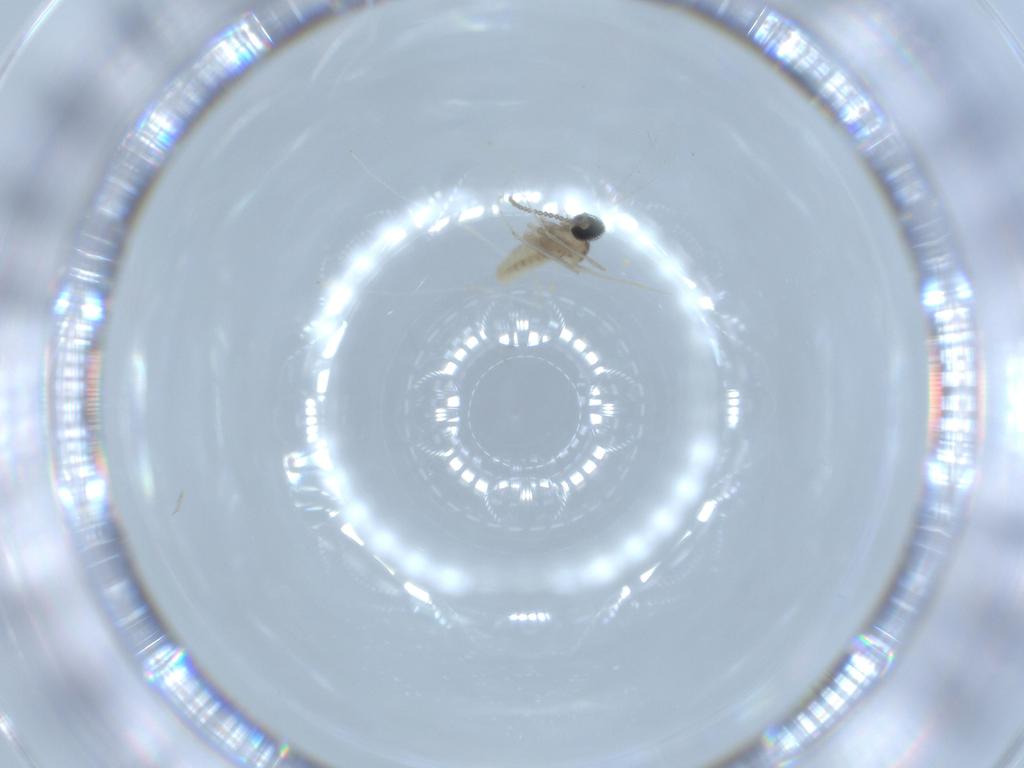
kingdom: Animalia
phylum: Arthropoda
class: Insecta
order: Diptera
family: Cecidomyiidae
